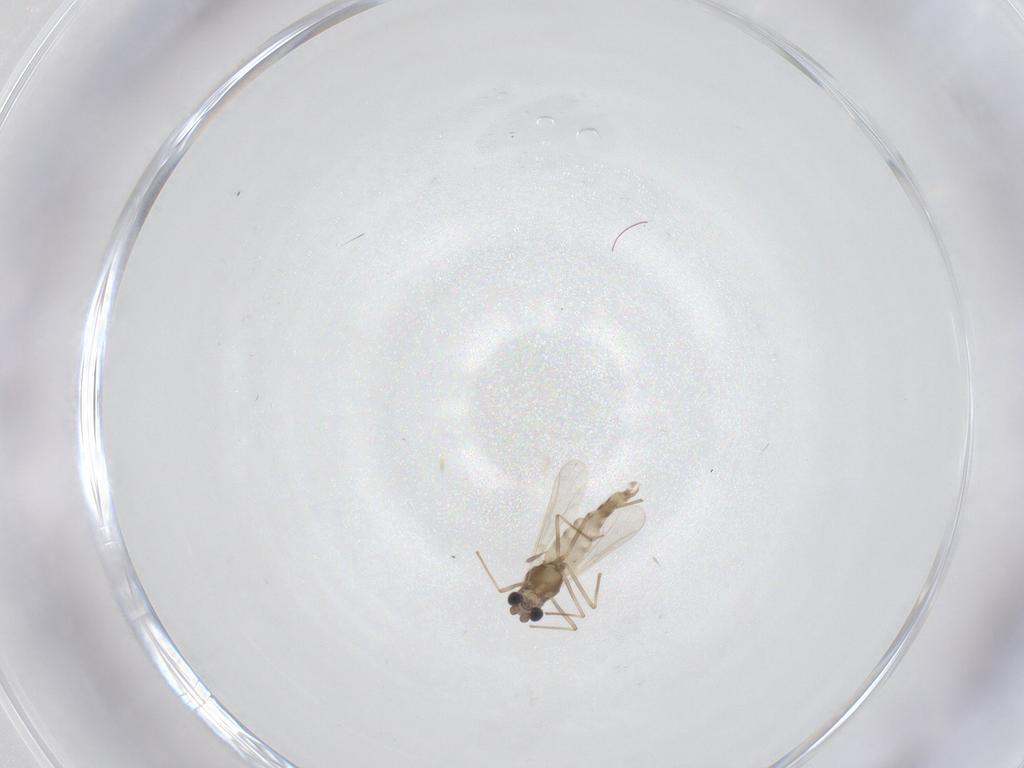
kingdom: Animalia
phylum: Arthropoda
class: Insecta
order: Diptera
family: Chironomidae
